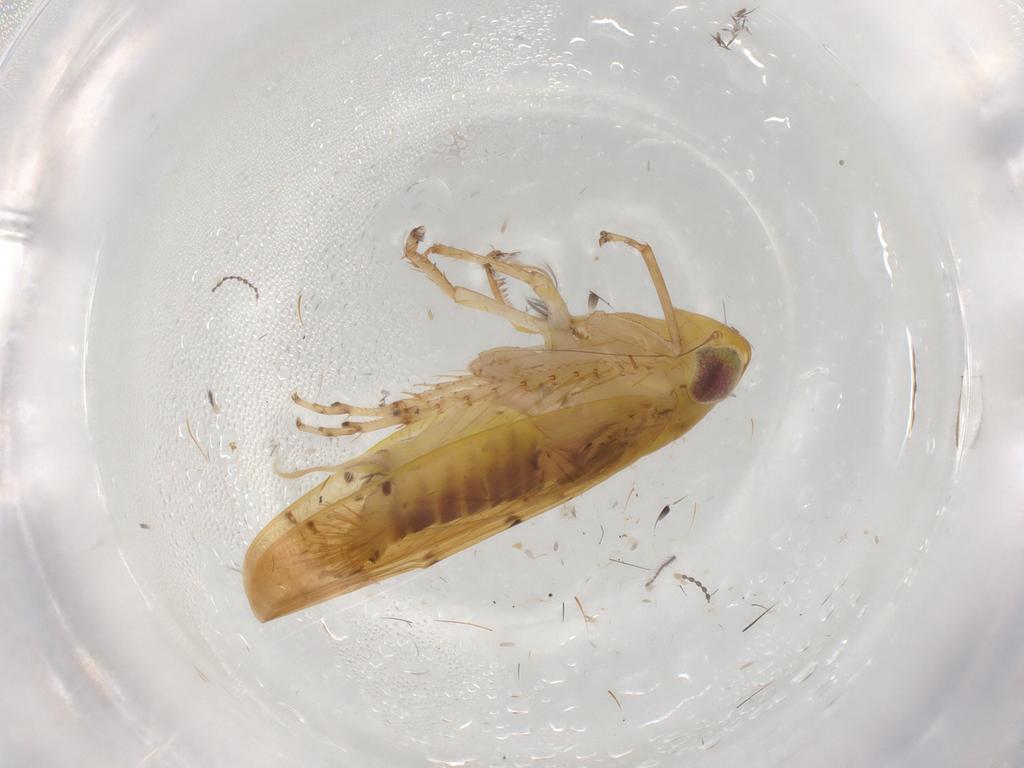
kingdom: Animalia
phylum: Arthropoda
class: Insecta
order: Hemiptera
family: Cicadellidae
